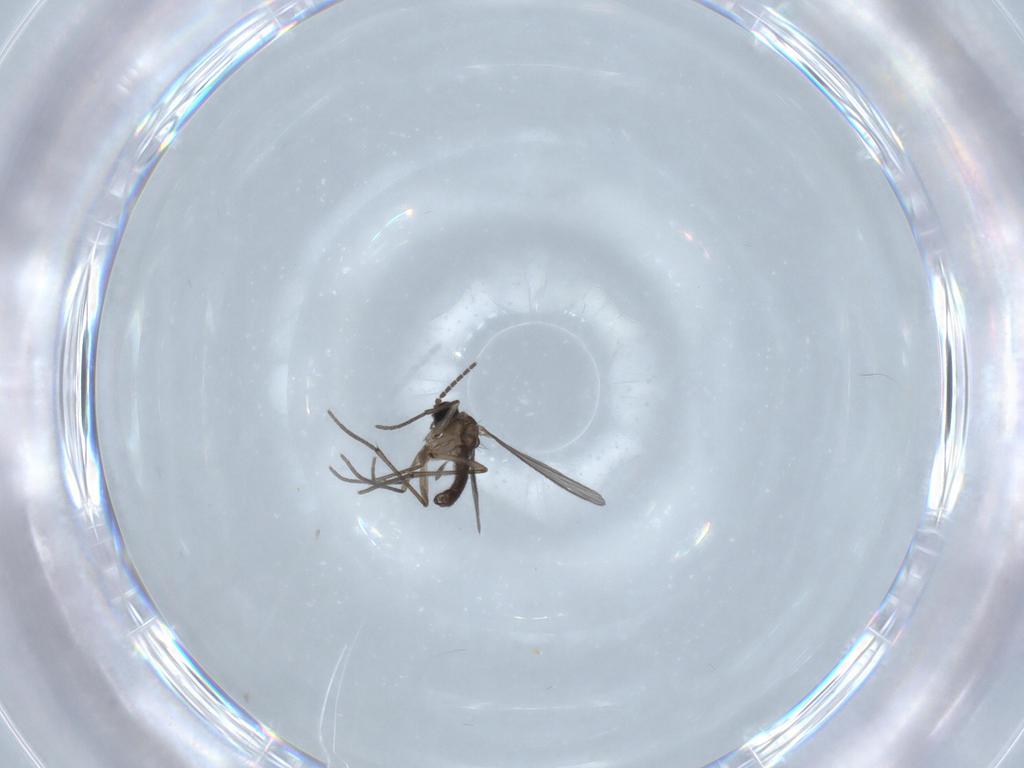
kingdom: Animalia
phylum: Arthropoda
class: Insecta
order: Diptera
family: Sciaridae
